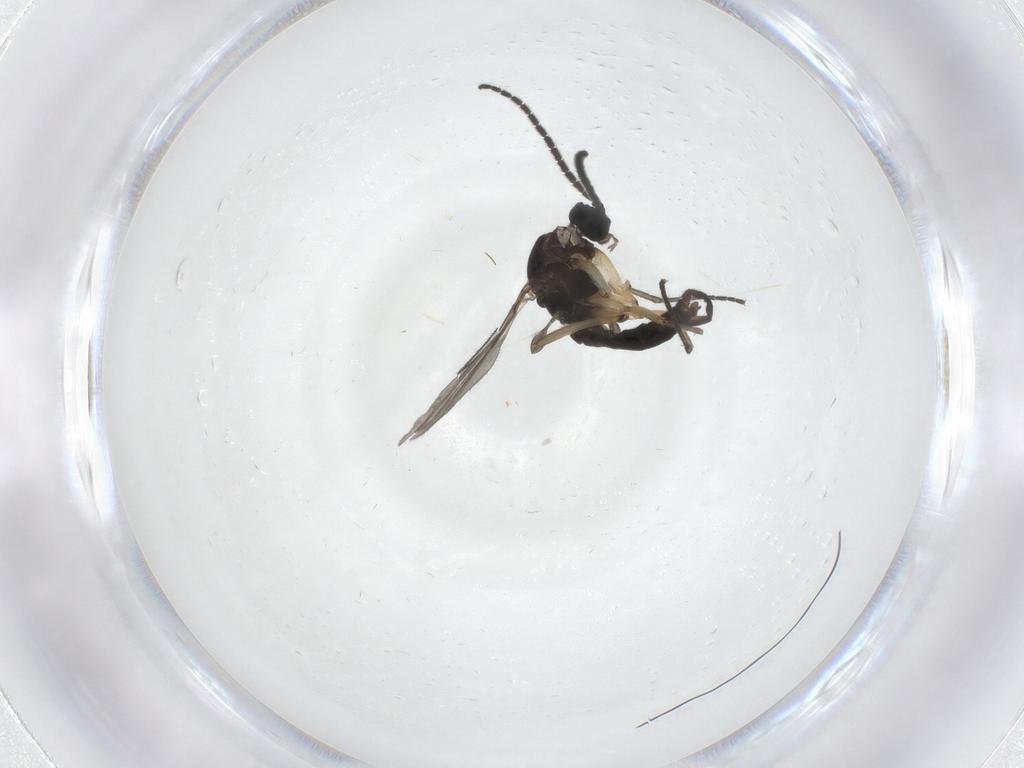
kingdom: Animalia
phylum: Arthropoda
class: Insecta
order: Diptera
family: Sciaridae
